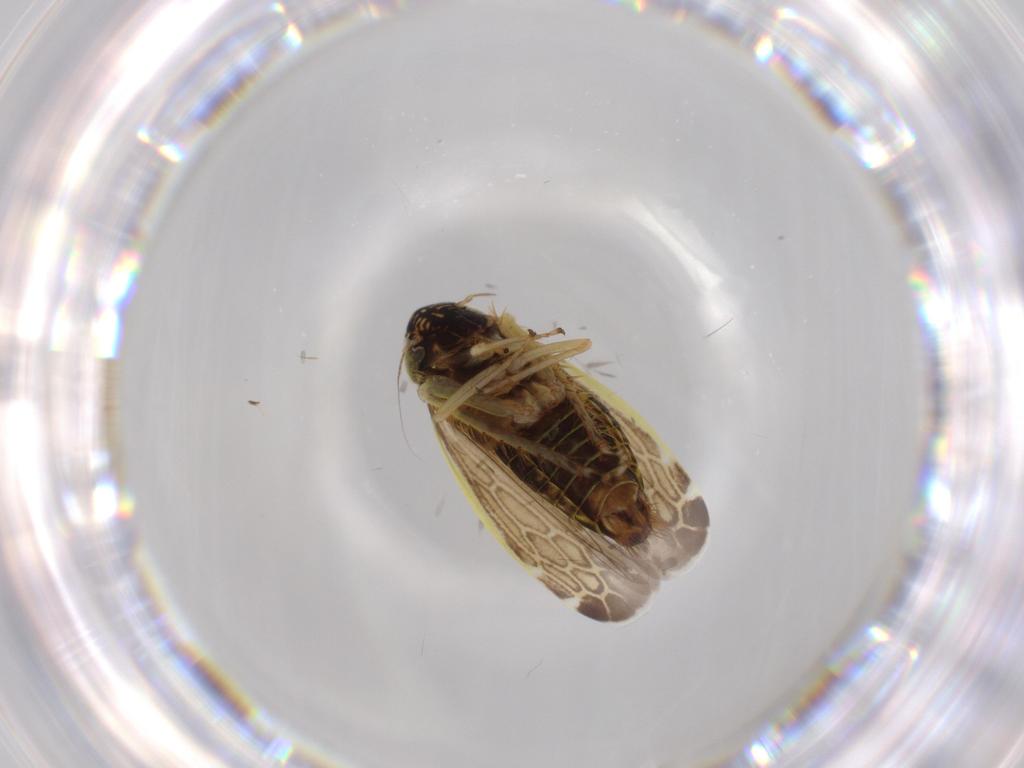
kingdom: Animalia
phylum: Arthropoda
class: Insecta
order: Hemiptera
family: Cicadellidae
